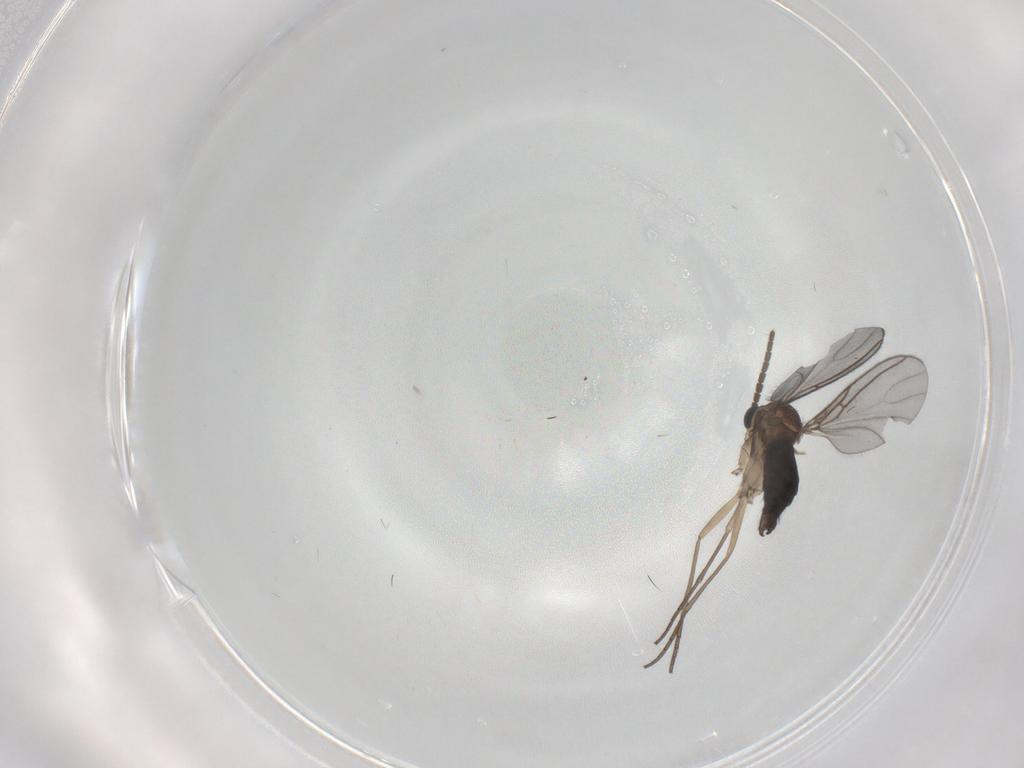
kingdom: Animalia
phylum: Arthropoda
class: Insecta
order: Diptera
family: Sciaridae
